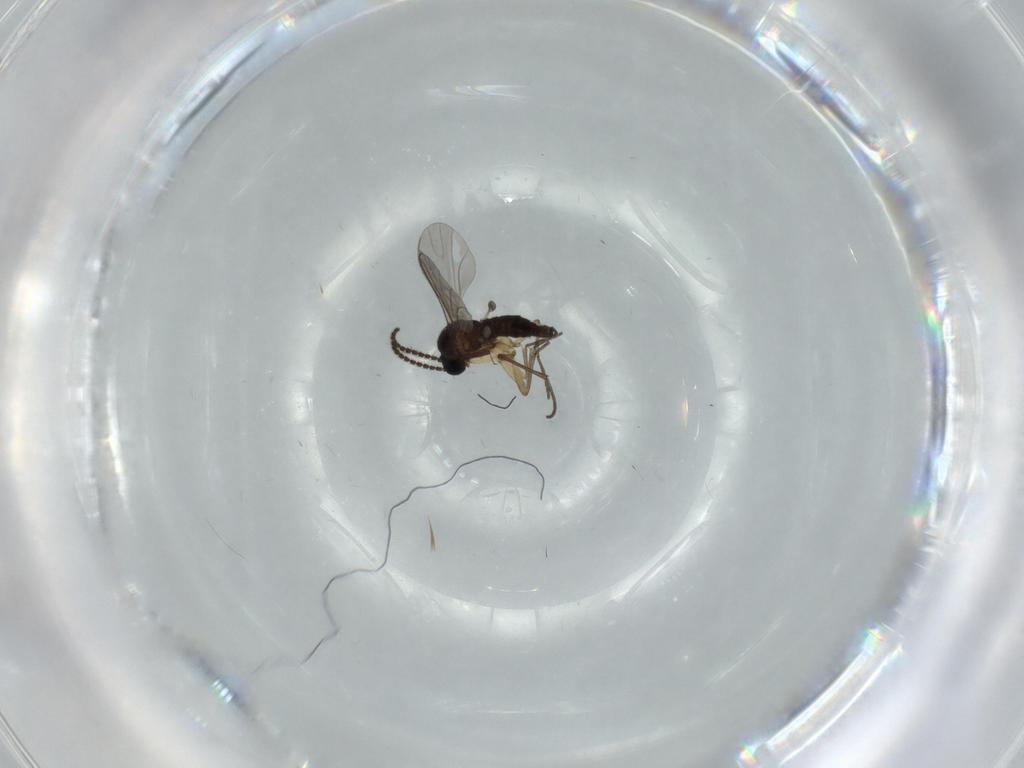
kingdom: Animalia
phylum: Arthropoda
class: Insecta
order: Diptera
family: Sciaridae
